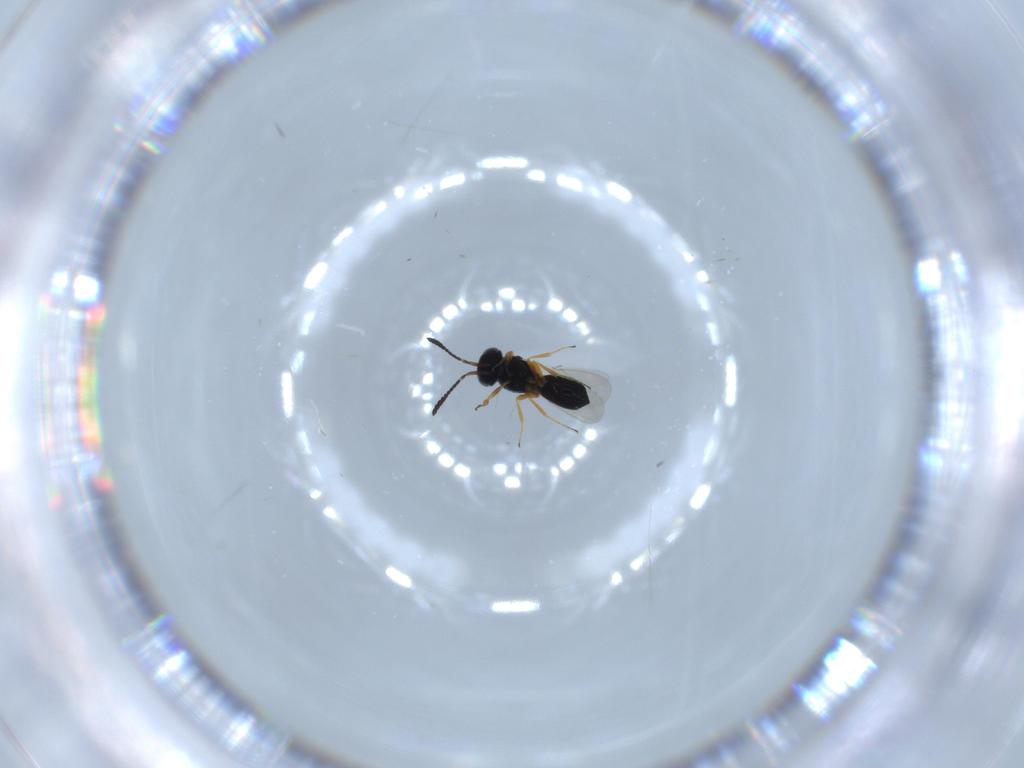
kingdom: Animalia
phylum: Arthropoda
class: Insecta
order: Hymenoptera
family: Scelionidae
